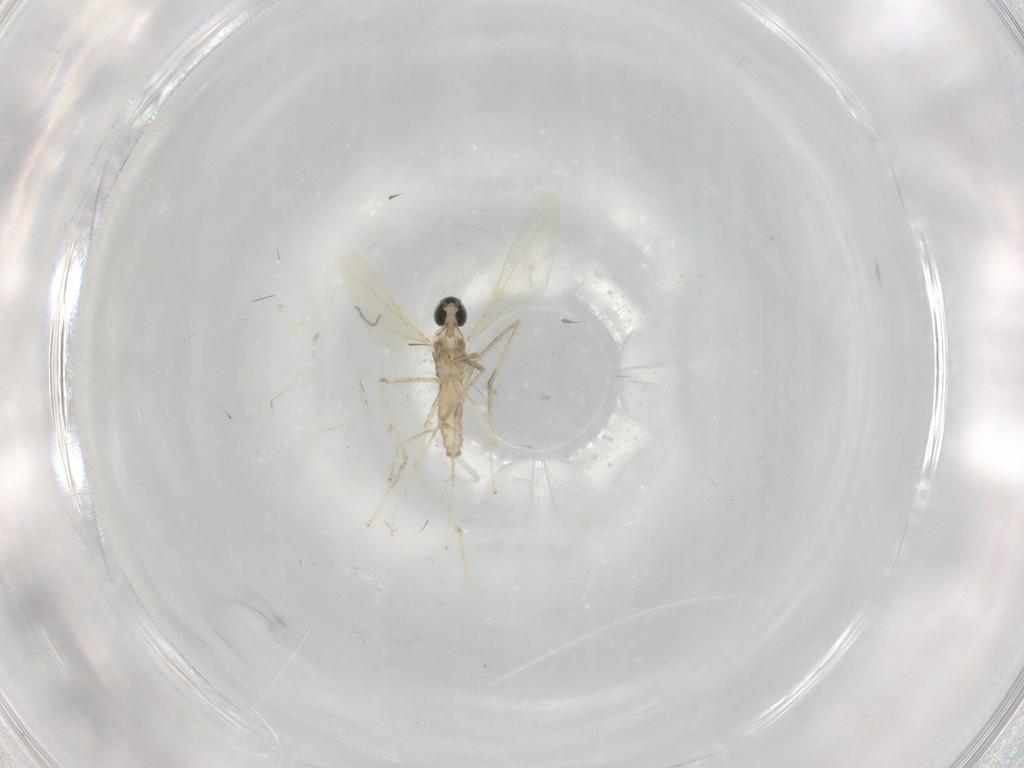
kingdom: Animalia
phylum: Arthropoda
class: Insecta
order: Diptera
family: Cecidomyiidae
